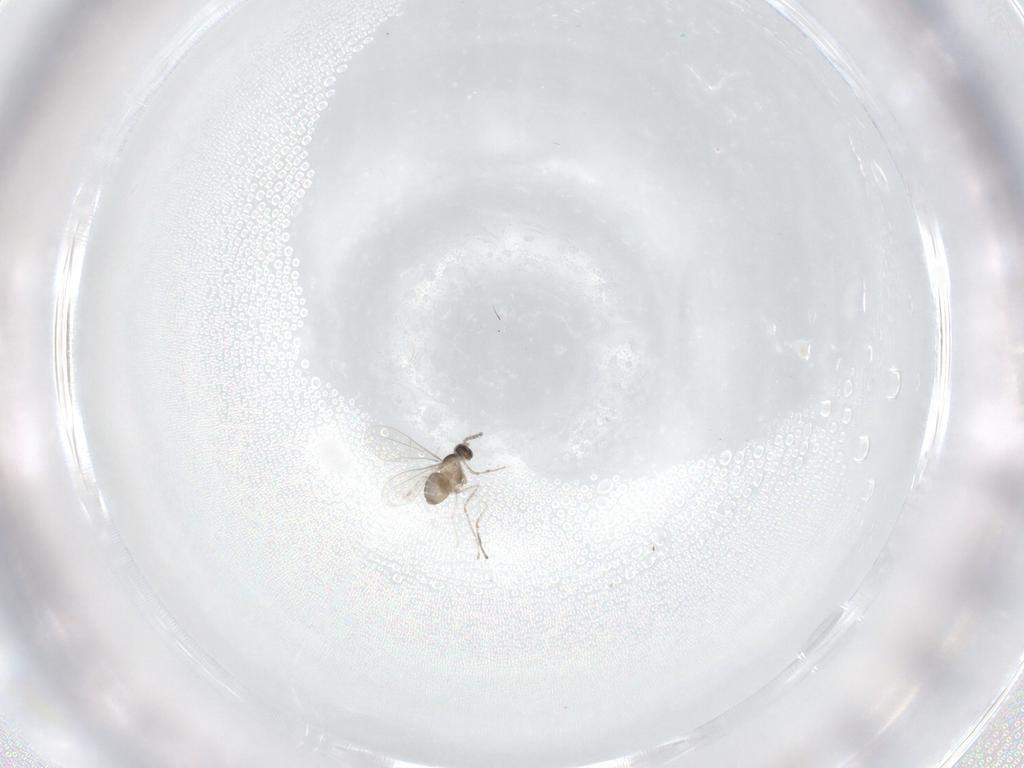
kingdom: Animalia
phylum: Arthropoda
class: Insecta
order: Diptera
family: Cecidomyiidae
